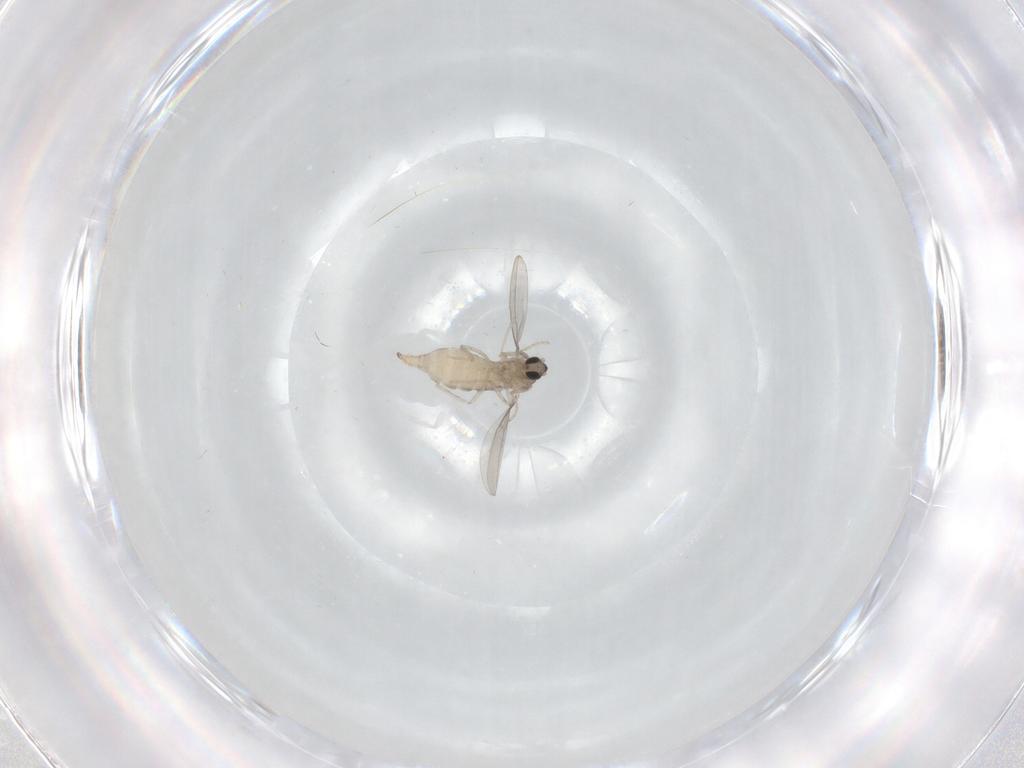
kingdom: Animalia
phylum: Arthropoda
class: Insecta
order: Diptera
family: Cecidomyiidae
